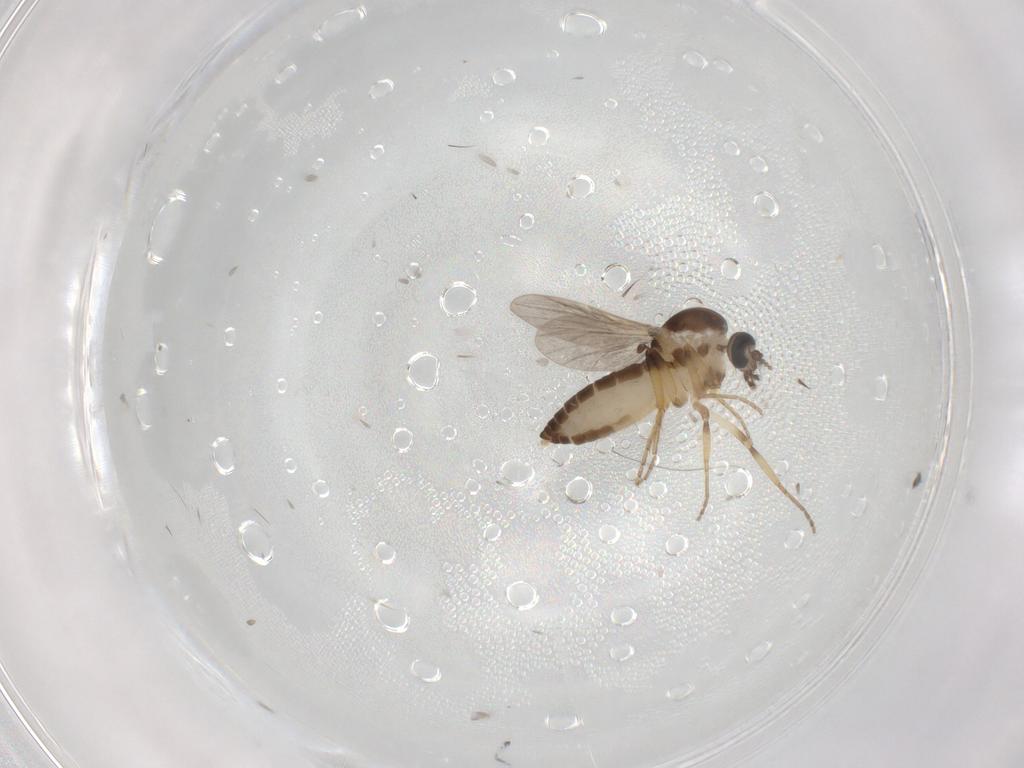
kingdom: Animalia
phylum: Arthropoda
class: Insecta
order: Diptera
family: Ceratopogonidae
